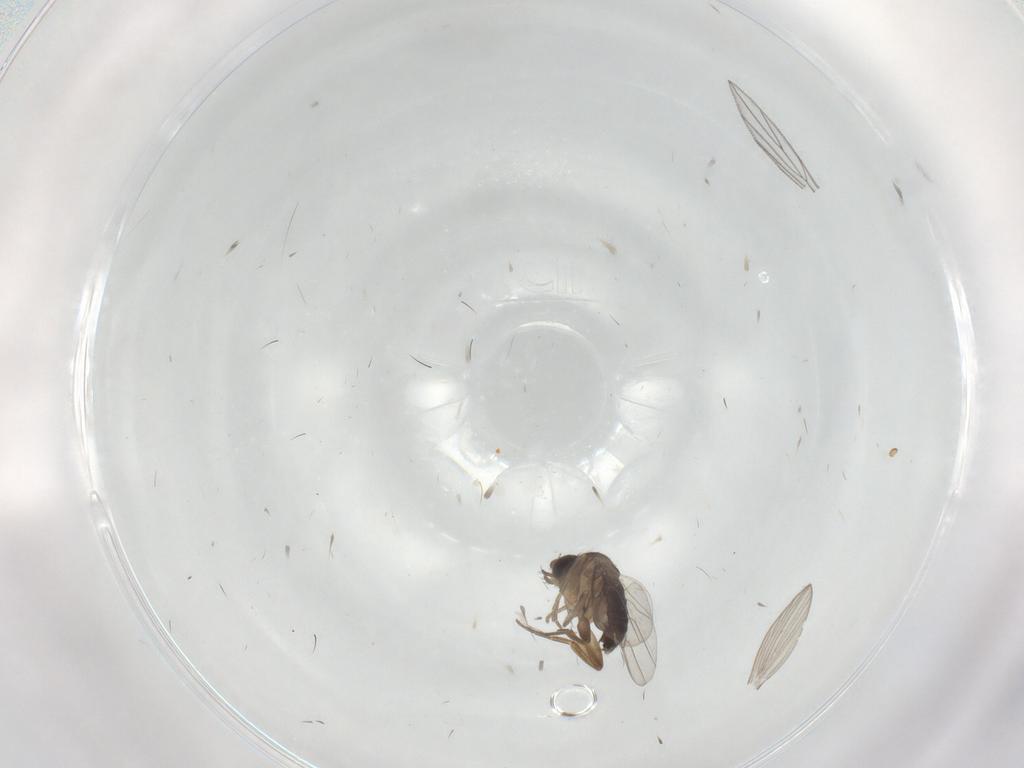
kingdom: Animalia
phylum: Arthropoda
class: Insecta
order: Diptera
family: Phoridae
